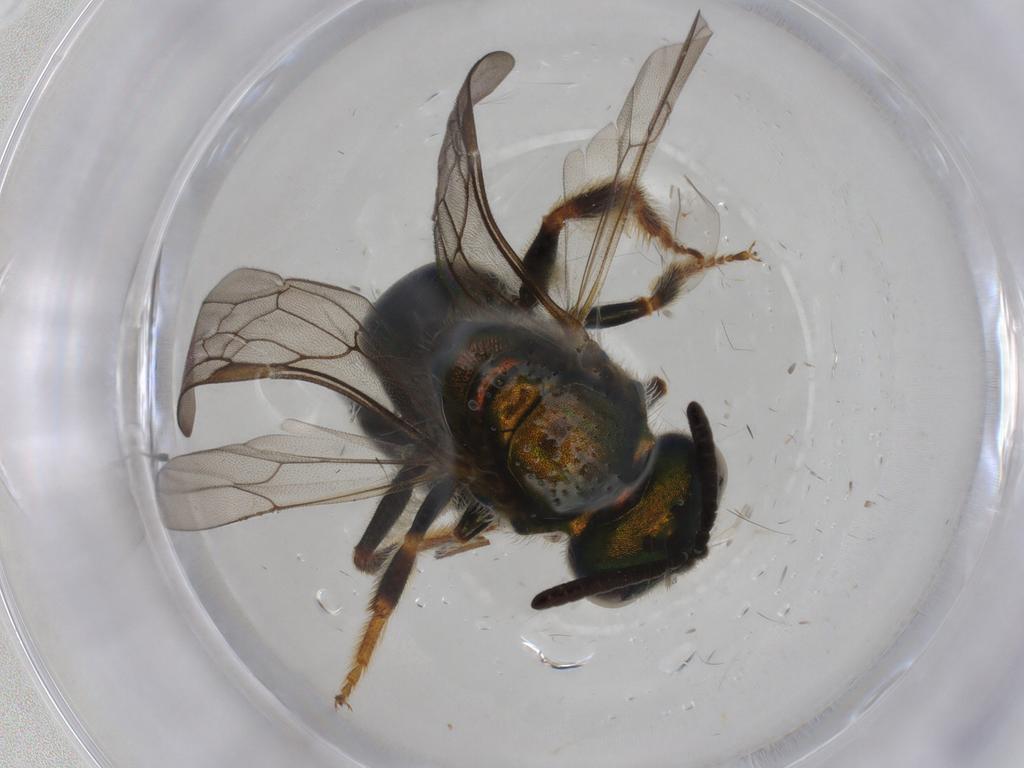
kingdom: Animalia
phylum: Arthropoda
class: Insecta
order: Hymenoptera
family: Halictidae
